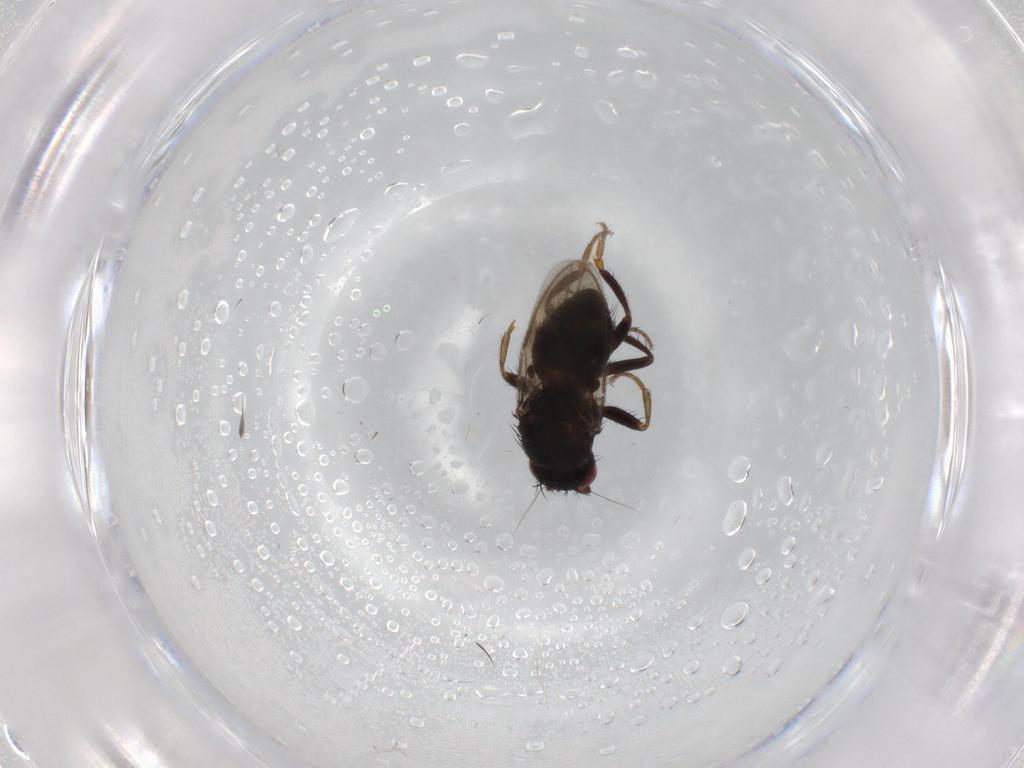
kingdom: Animalia
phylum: Arthropoda
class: Insecta
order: Diptera
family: Sphaeroceridae
